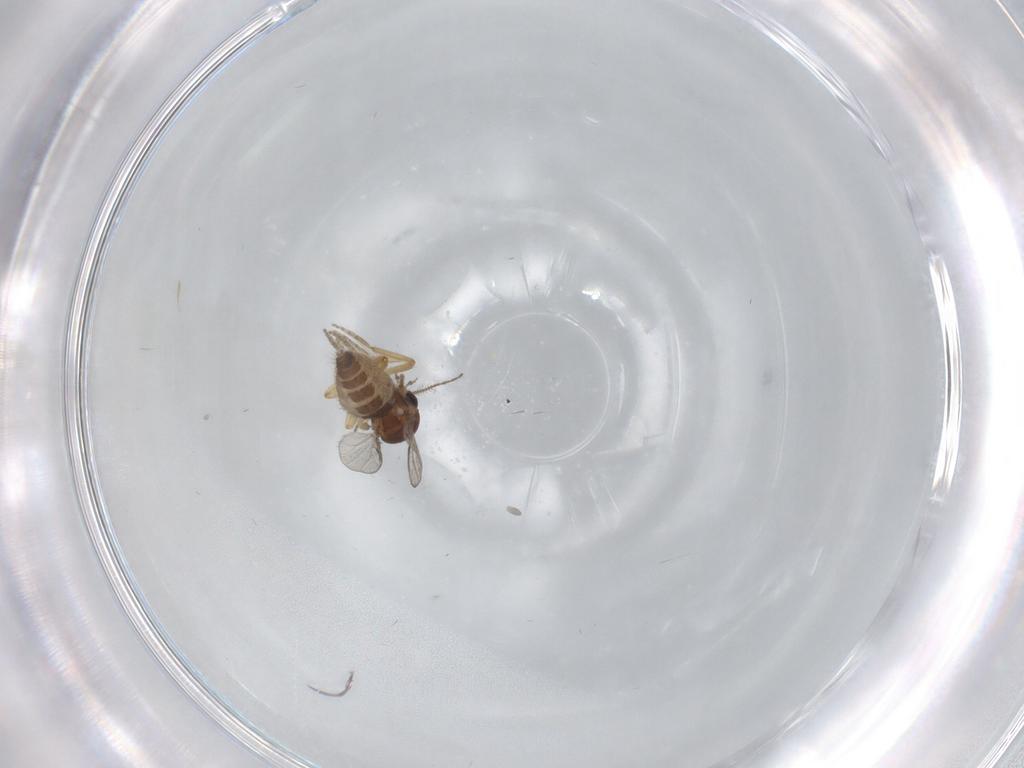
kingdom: Animalia
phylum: Arthropoda
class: Insecta
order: Diptera
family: Ceratopogonidae
